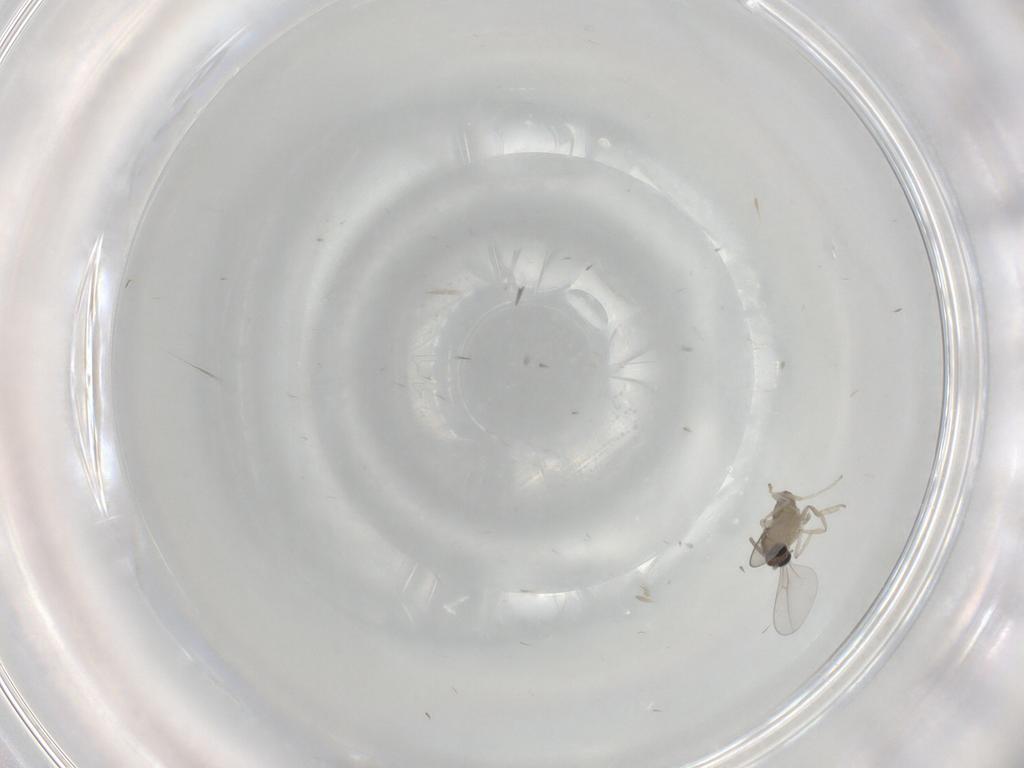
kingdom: Animalia
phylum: Arthropoda
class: Insecta
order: Diptera
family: Cecidomyiidae
